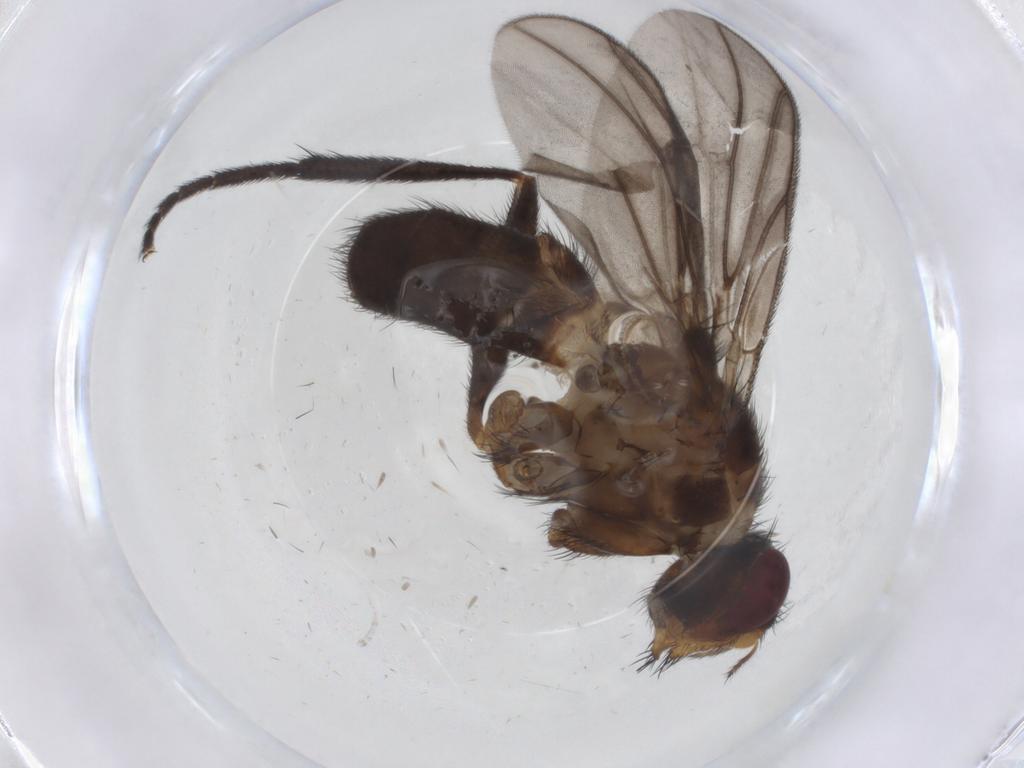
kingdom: Animalia
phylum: Arthropoda
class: Insecta
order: Diptera
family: Calliphoridae
